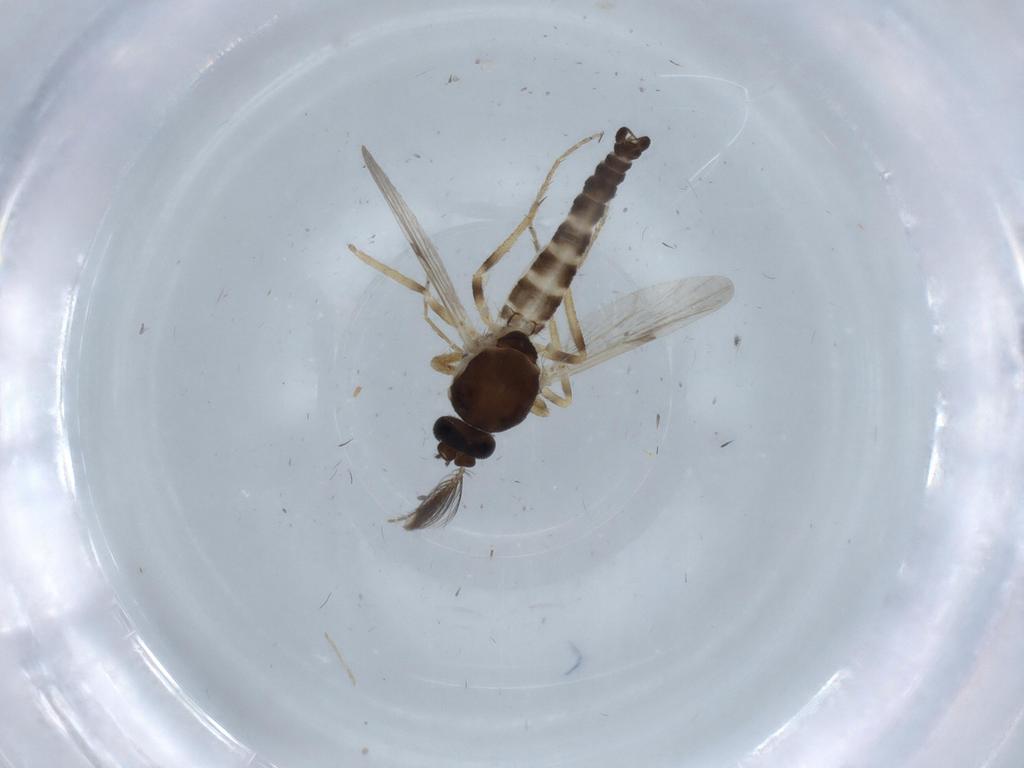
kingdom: Animalia
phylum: Arthropoda
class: Insecta
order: Diptera
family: Ceratopogonidae
